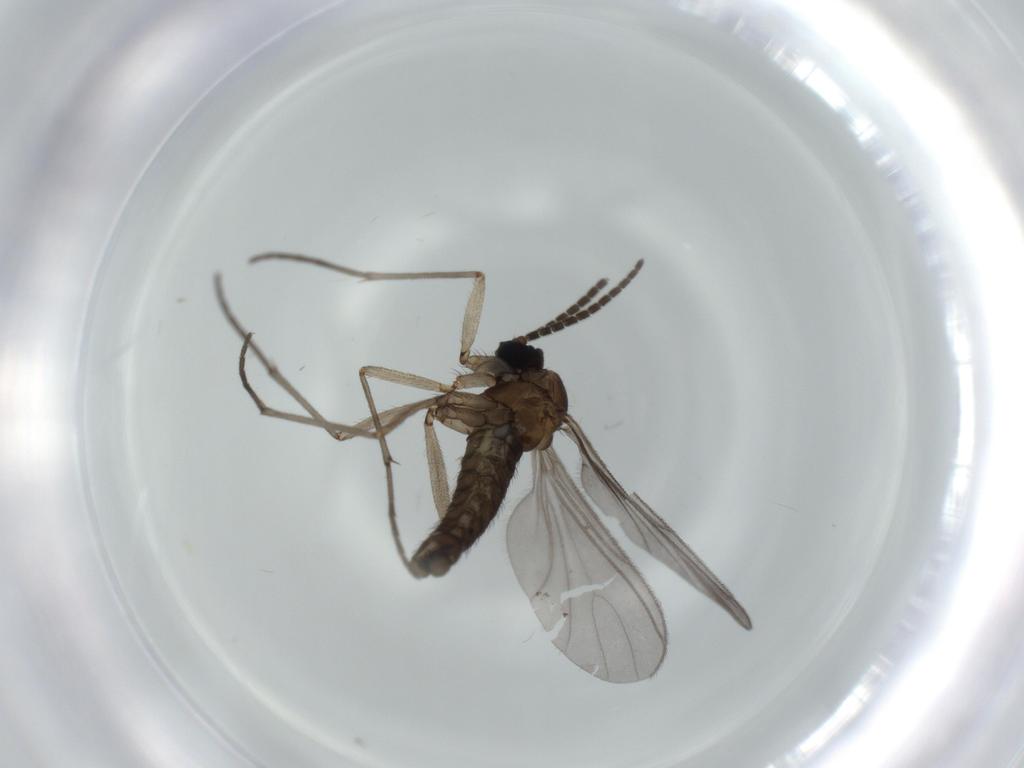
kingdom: Animalia
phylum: Arthropoda
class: Insecta
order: Diptera
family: Sciaridae
